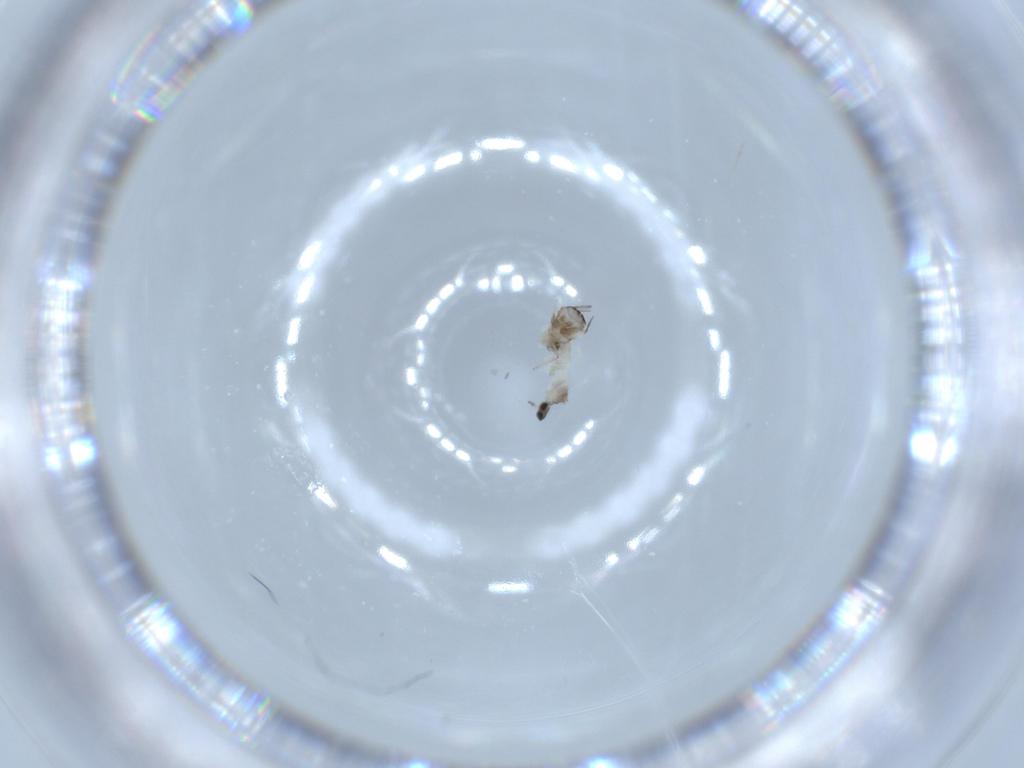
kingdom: Animalia
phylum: Arthropoda
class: Insecta
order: Diptera
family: Cecidomyiidae
